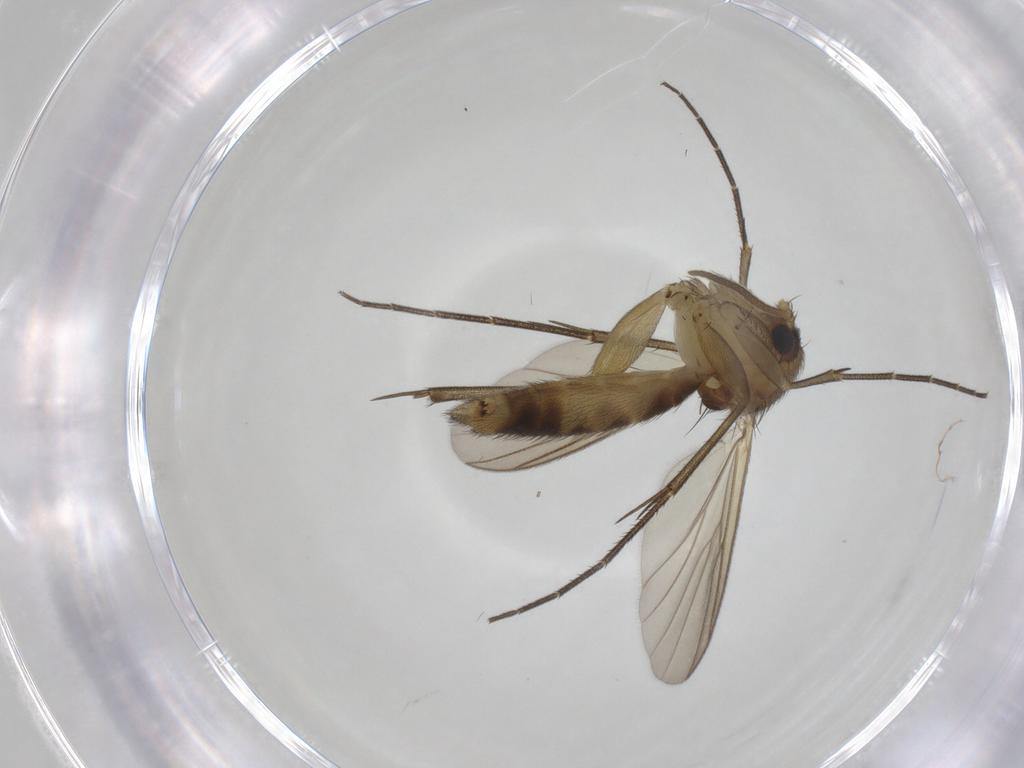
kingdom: Animalia
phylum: Arthropoda
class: Insecta
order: Diptera
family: Mycetophilidae
